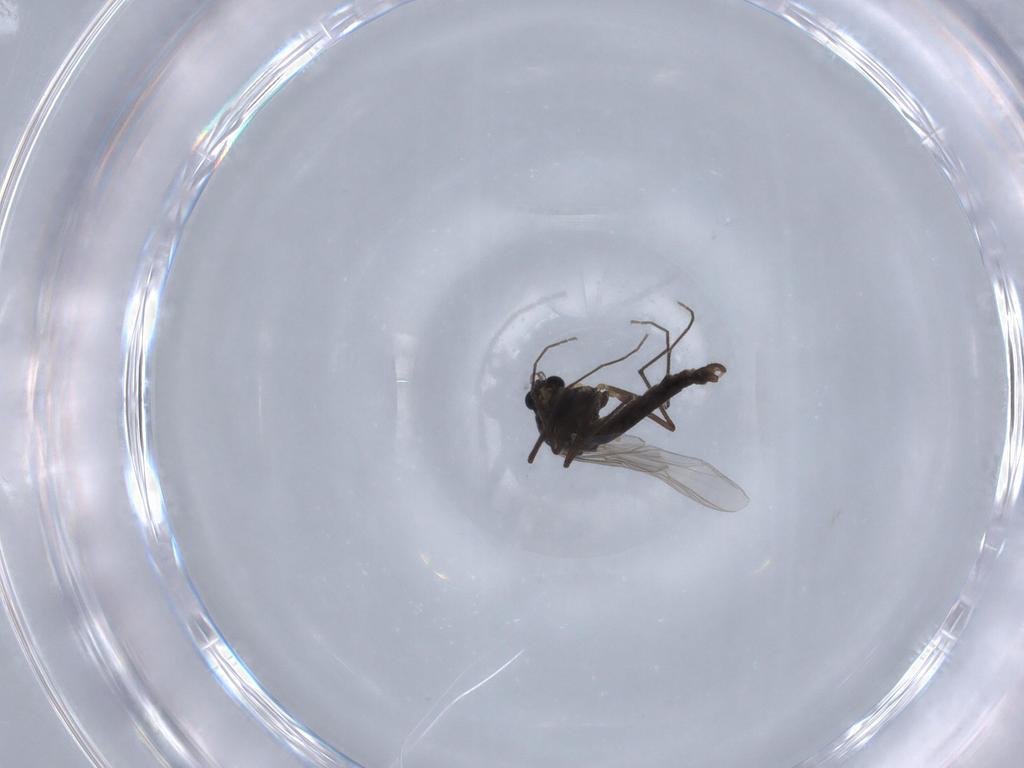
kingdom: Animalia
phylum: Arthropoda
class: Insecta
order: Diptera
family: Chironomidae
